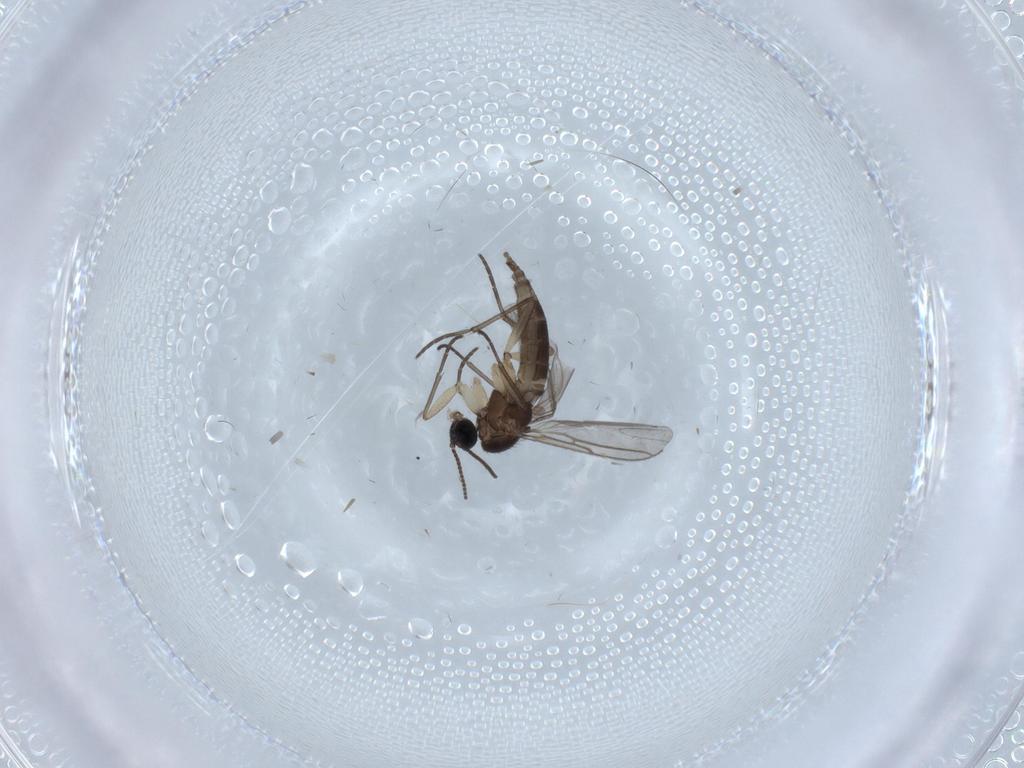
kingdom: Animalia
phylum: Arthropoda
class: Insecta
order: Diptera
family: Sciaridae
